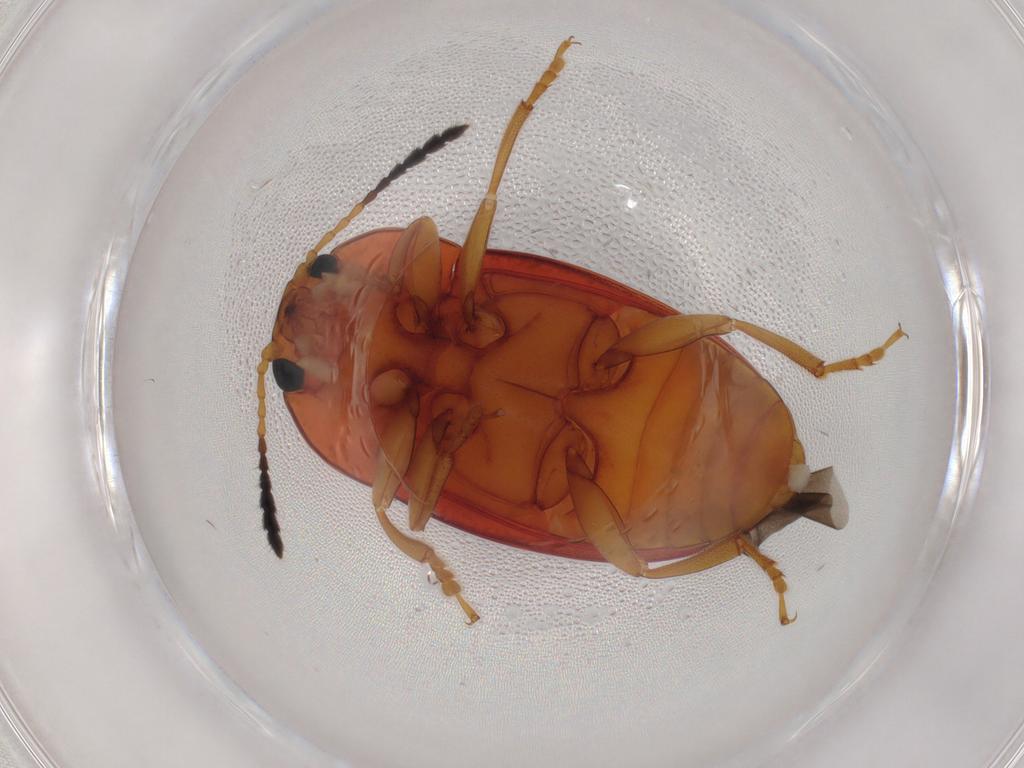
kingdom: Animalia
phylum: Arthropoda
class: Insecta
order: Coleoptera
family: Erotylidae
